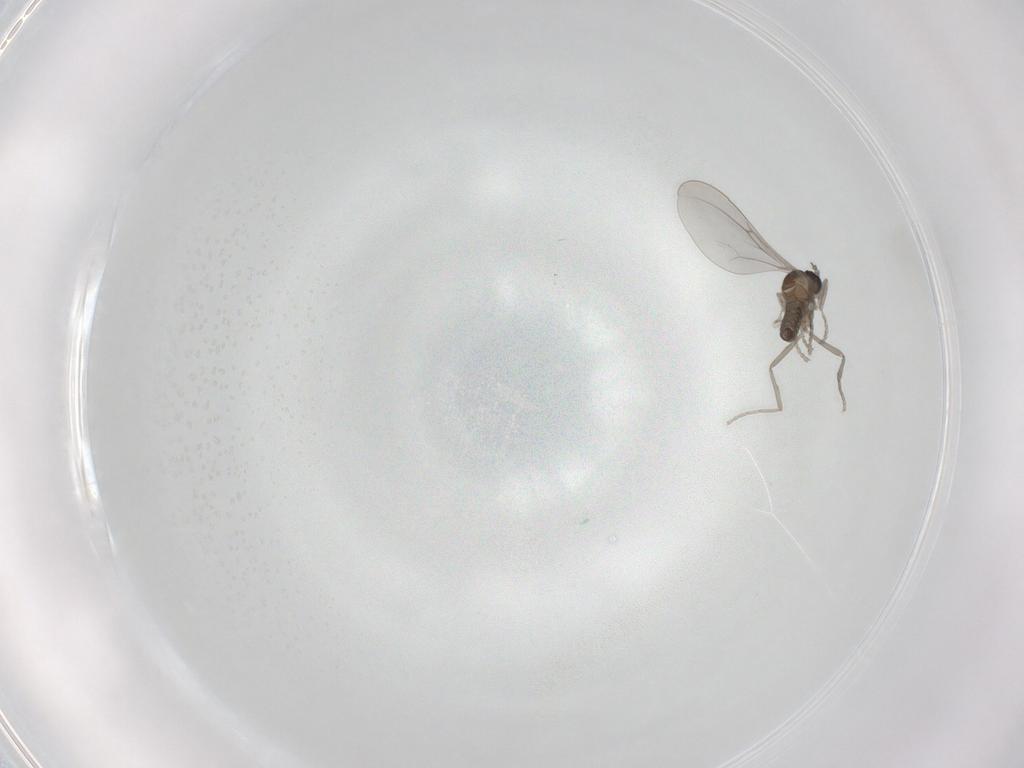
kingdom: Animalia
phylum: Arthropoda
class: Insecta
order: Diptera
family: Cecidomyiidae
